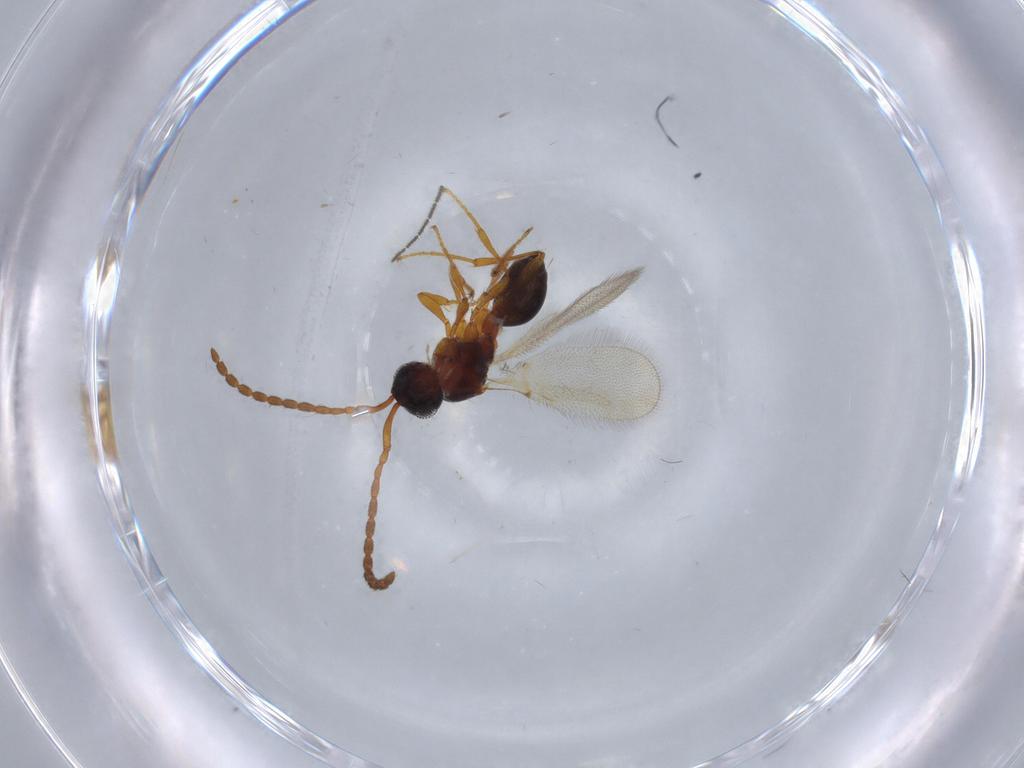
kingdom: Animalia
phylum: Arthropoda
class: Insecta
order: Hymenoptera
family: Diapriidae
